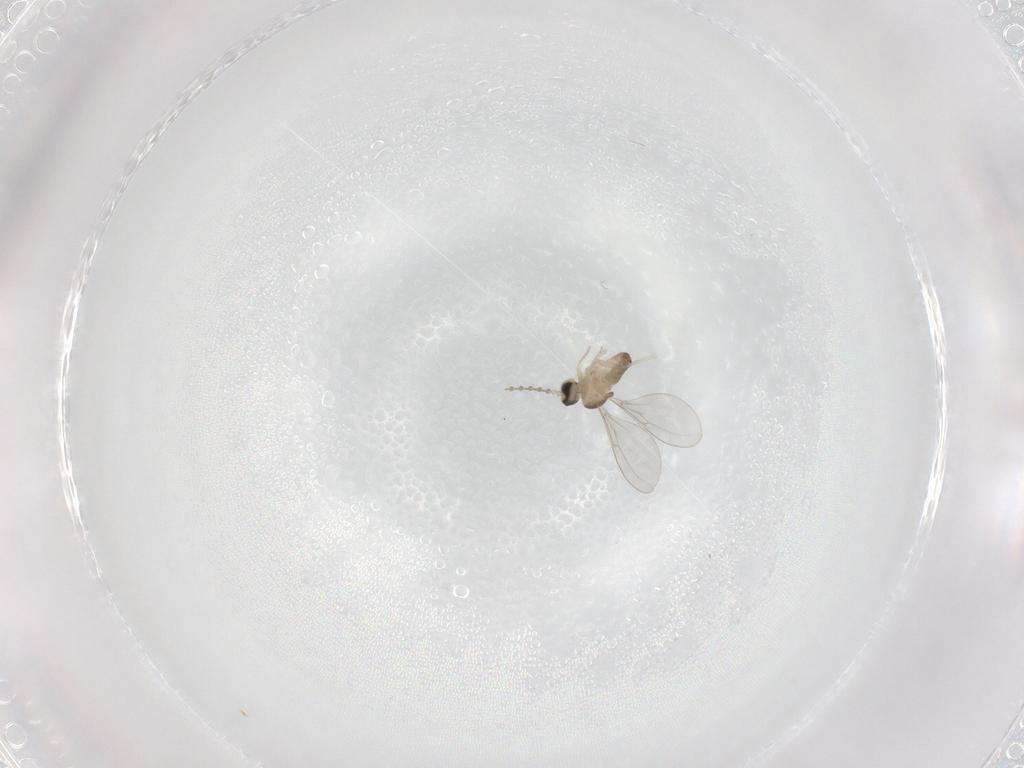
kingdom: Animalia
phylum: Arthropoda
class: Insecta
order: Diptera
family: Cecidomyiidae
